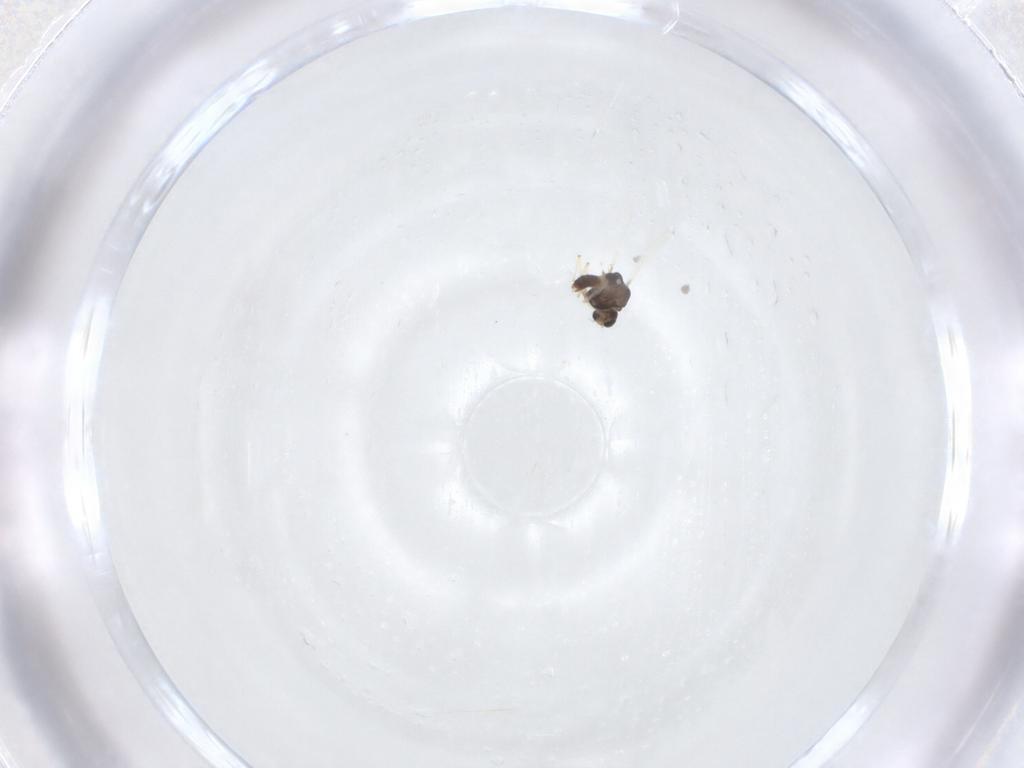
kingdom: Animalia
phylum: Arthropoda
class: Insecta
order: Diptera
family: Chironomidae
